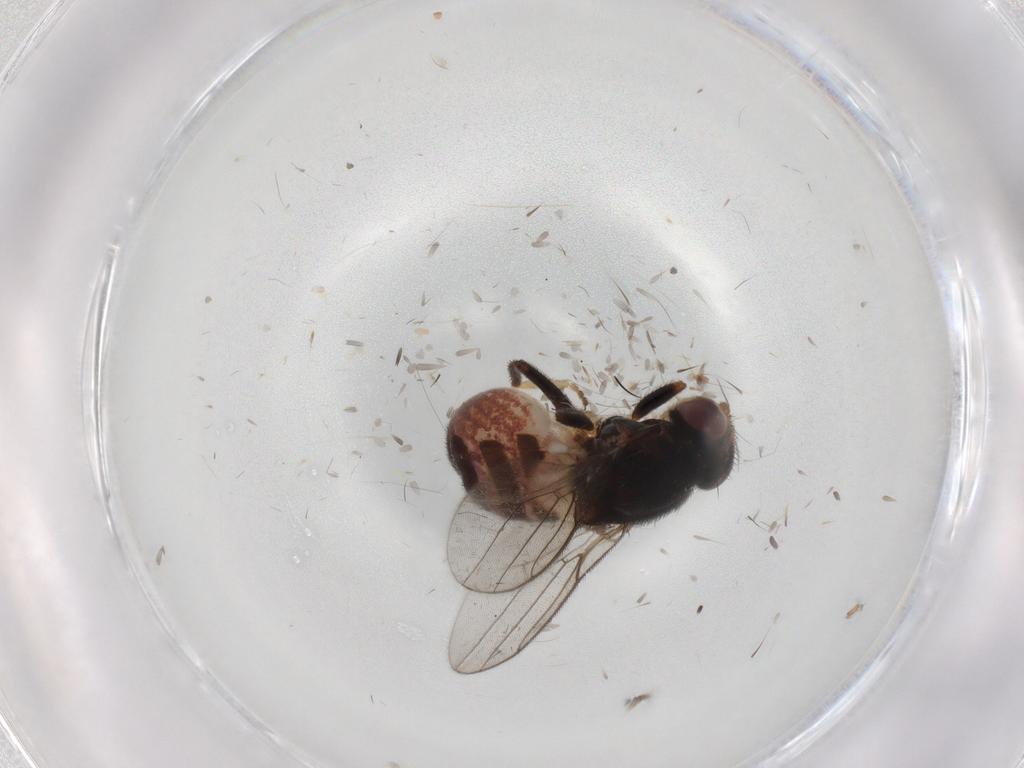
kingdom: Animalia
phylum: Arthropoda
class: Insecta
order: Diptera
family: Chloropidae
